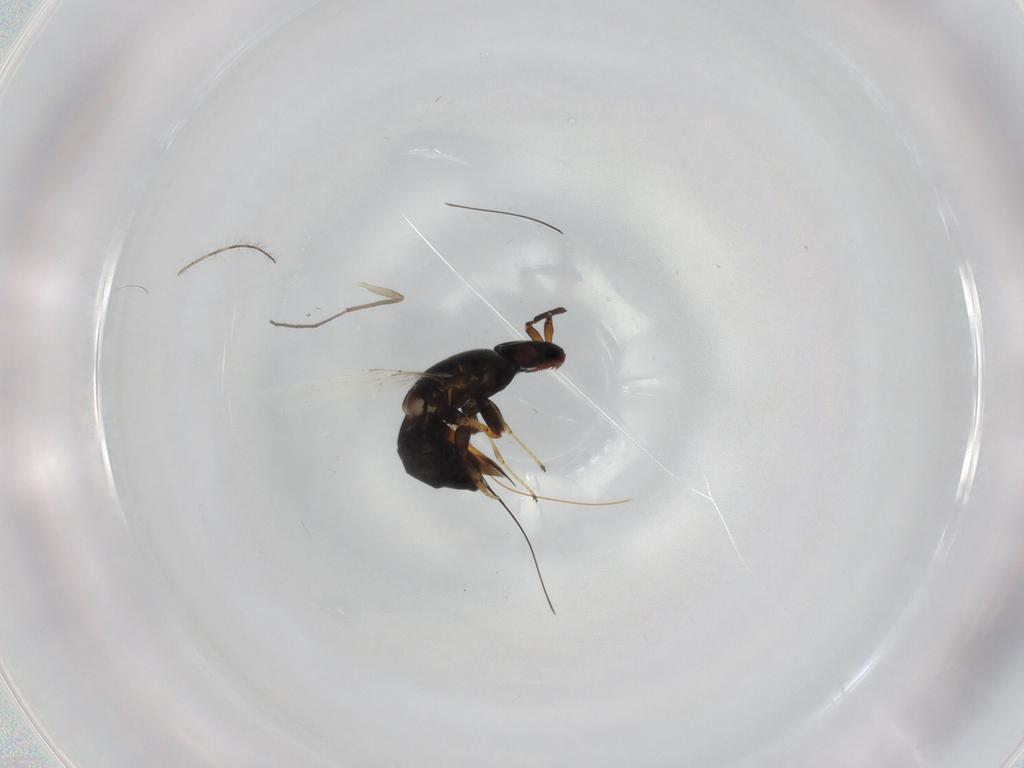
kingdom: Animalia
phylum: Arthropoda
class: Insecta
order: Hymenoptera
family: Agaonidae
